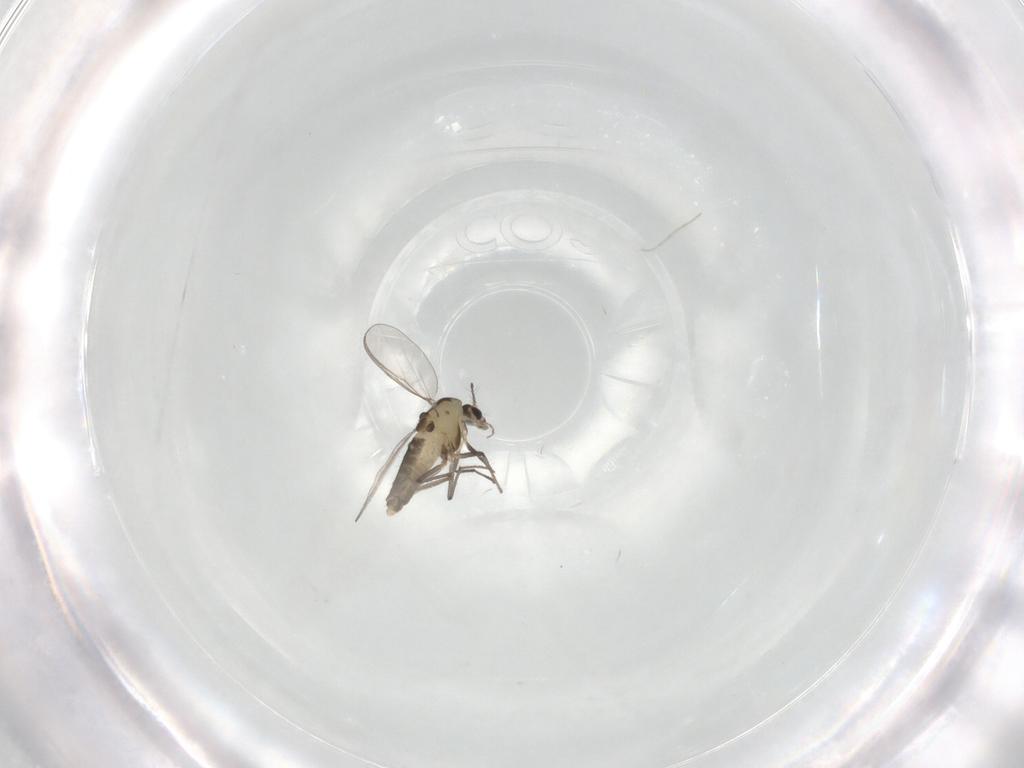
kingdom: Animalia
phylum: Arthropoda
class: Insecta
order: Diptera
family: Chironomidae
